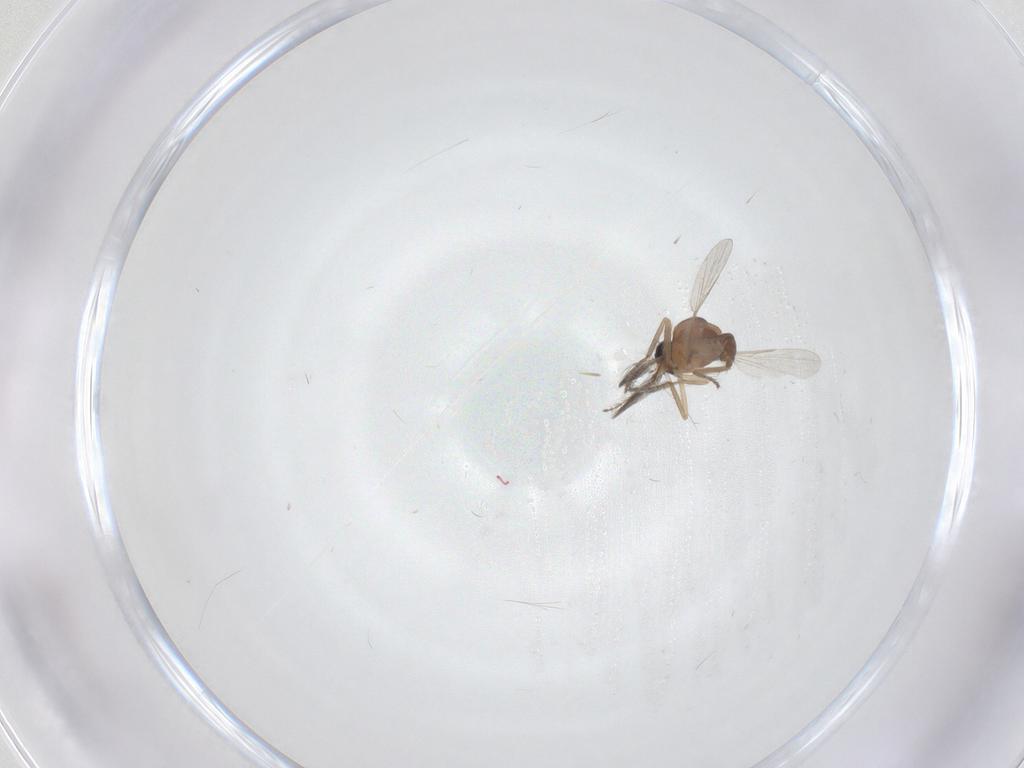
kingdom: Animalia
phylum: Arthropoda
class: Insecta
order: Diptera
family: Ceratopogonidae
